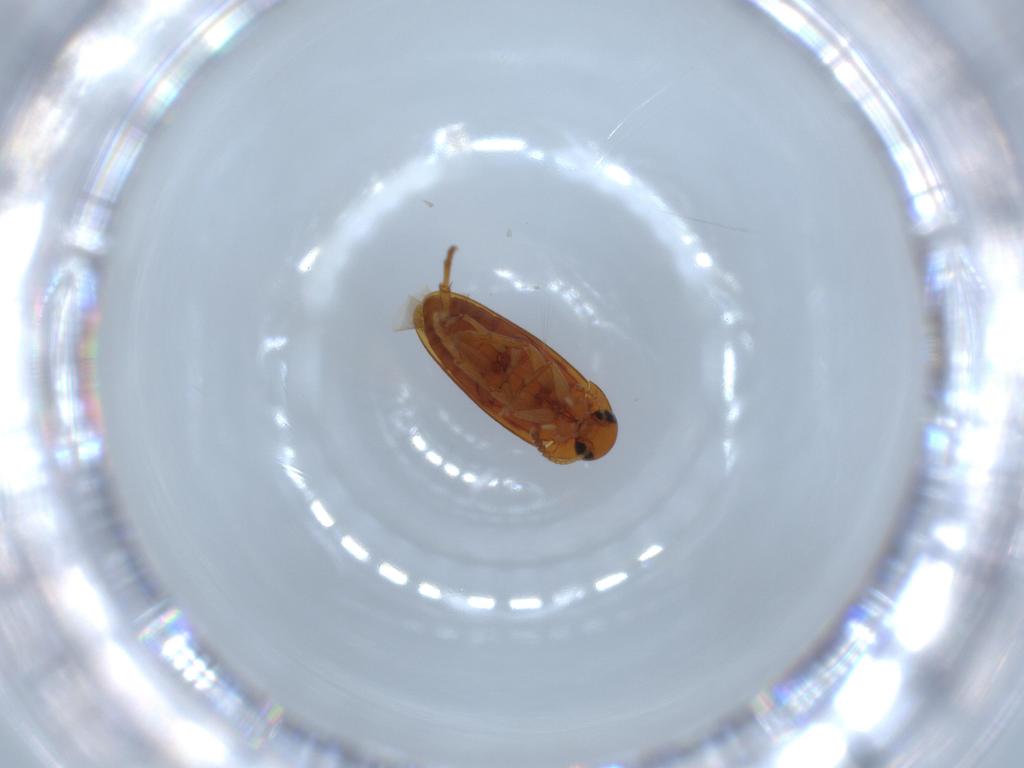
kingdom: Animalia
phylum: Arthropoda
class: Insecta
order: Coleoptera
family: Scraptiidae
